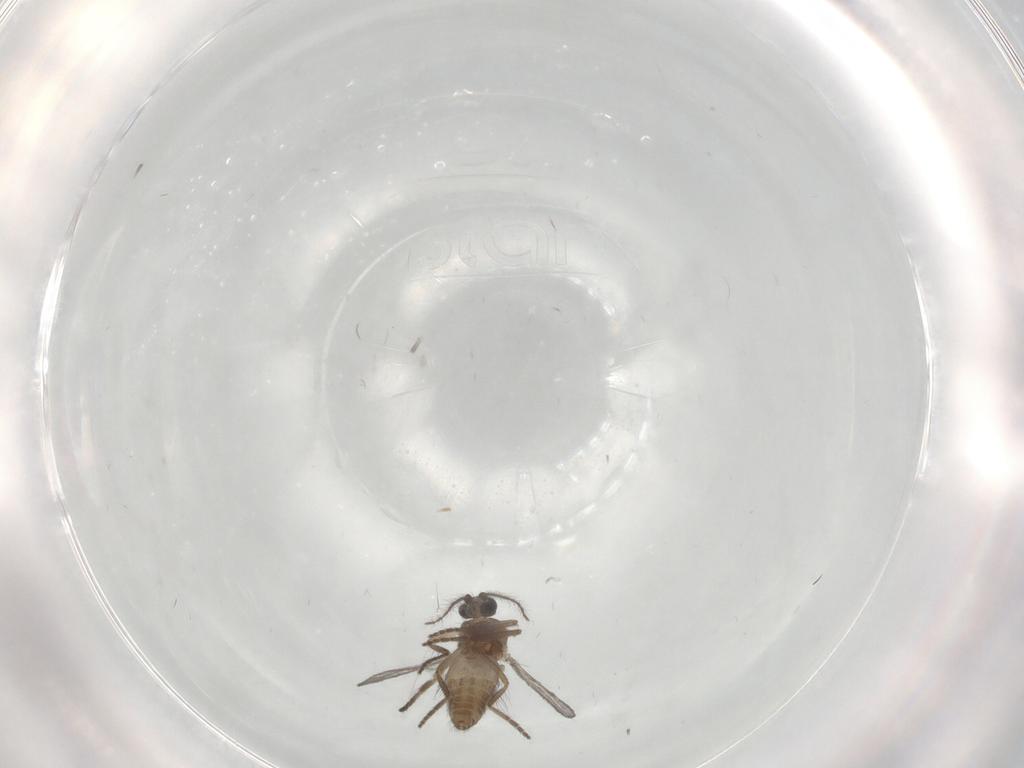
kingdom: Animalia
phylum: Arthropoda
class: Insecta
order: Diptera
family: Ceratopogonidae
